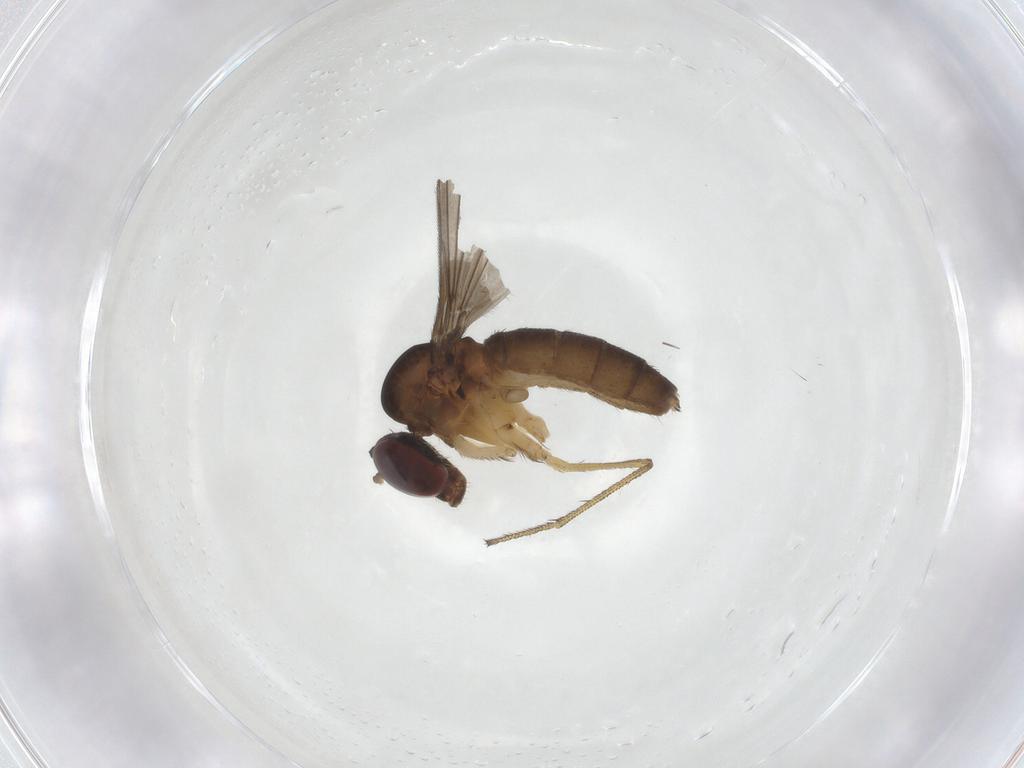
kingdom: Animalia
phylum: Arthropoda
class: Insecta
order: Diptera
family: Dolichopodidae
